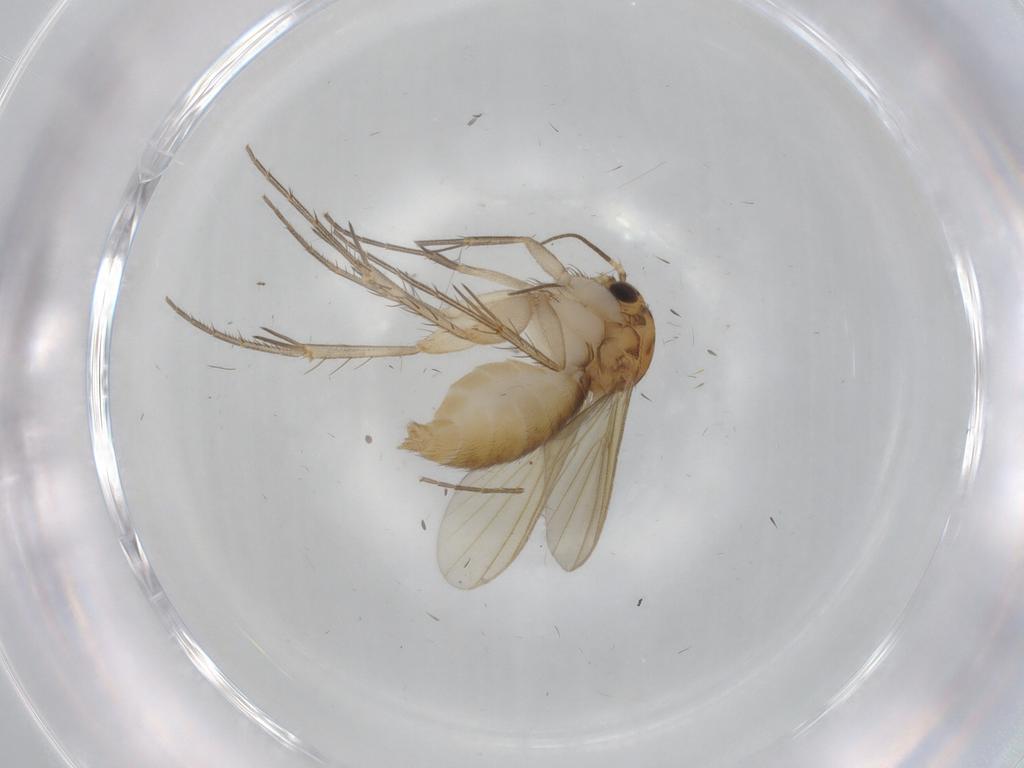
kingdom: Animalia
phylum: Arthropoda
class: Insecta
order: Diptera
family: Mycetophilidae
